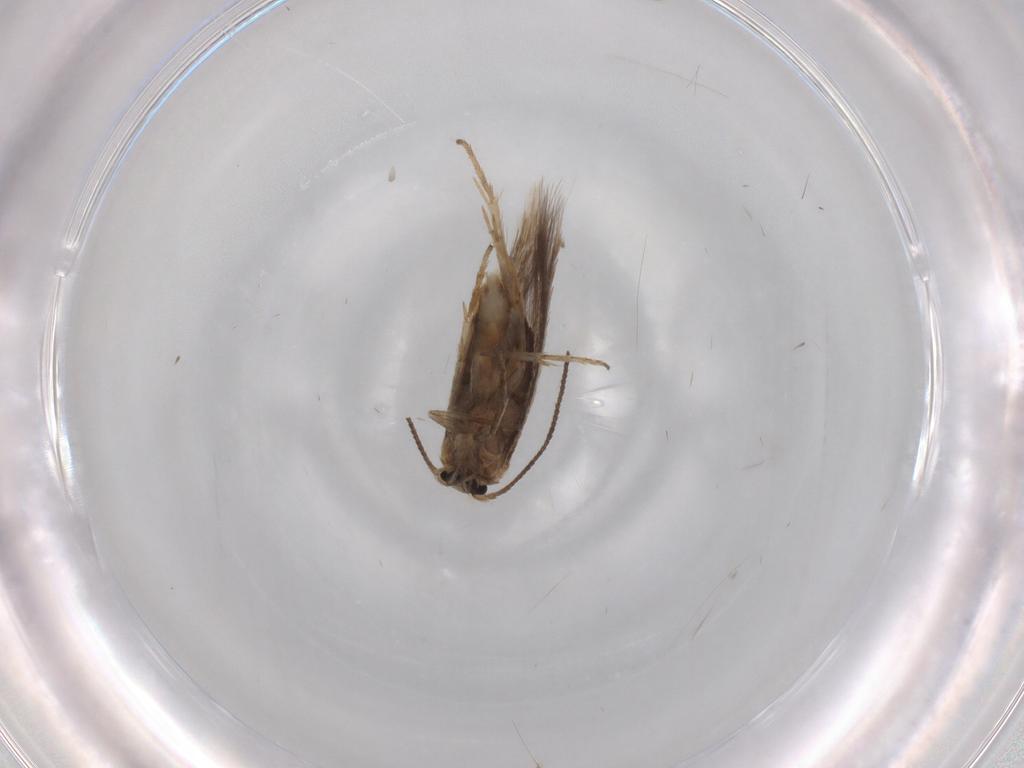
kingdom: Animalia
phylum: Arthropoda
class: Insecta
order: Lepidoptera
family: Nepticulidae
